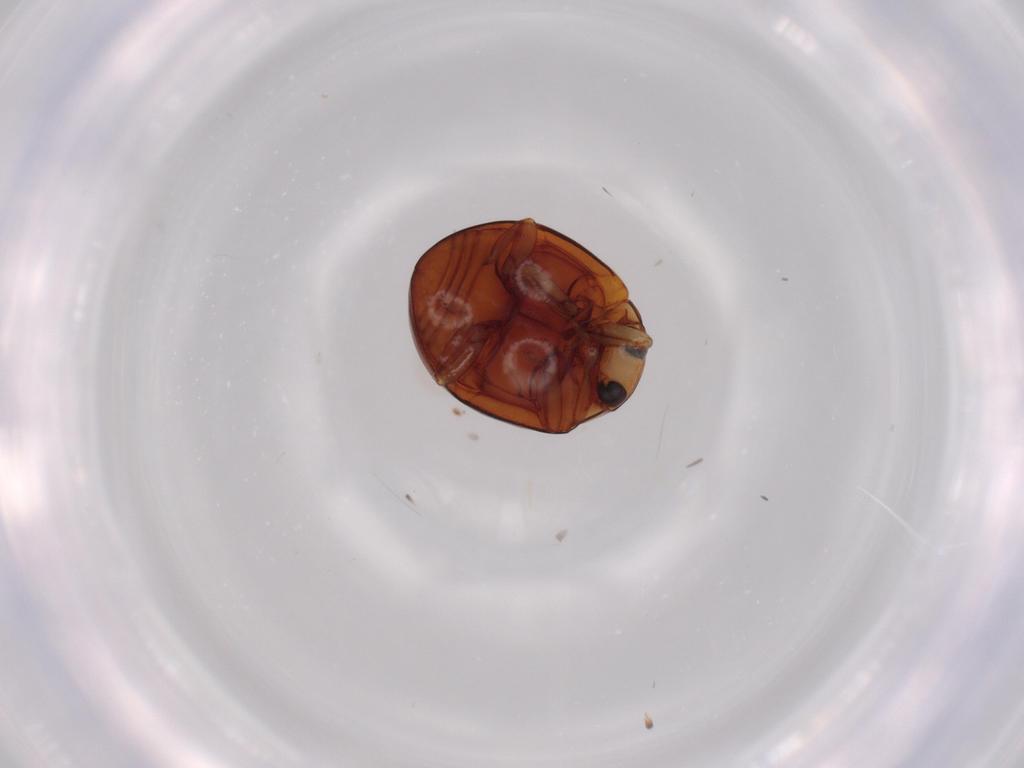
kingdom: Animalia
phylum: Arthropoda
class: Insecta
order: Coleoptera
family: Coccinellidae
